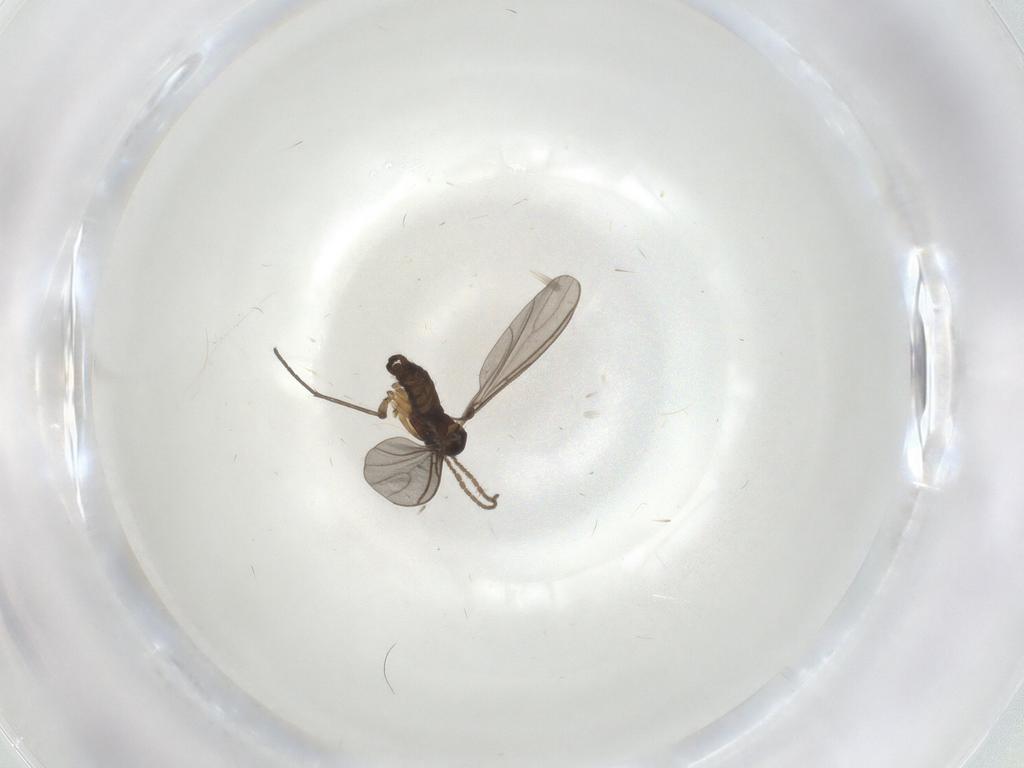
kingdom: Animalia
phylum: Arthropoda
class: Insecta
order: Diptera
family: Sciaridae
